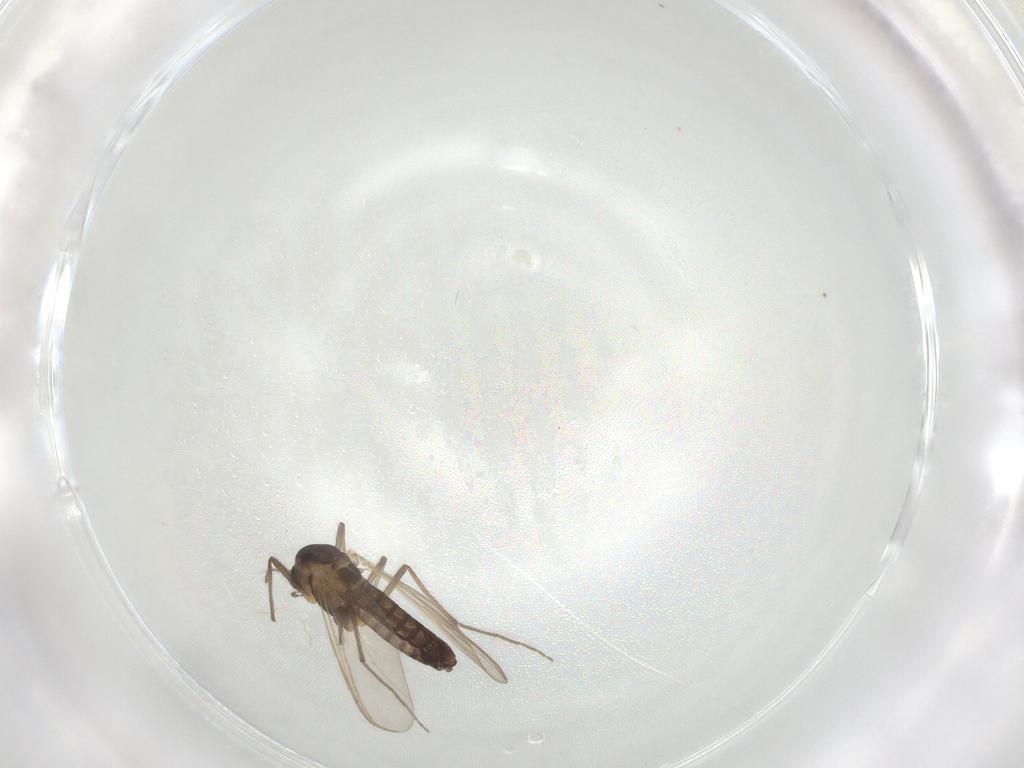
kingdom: Animalia
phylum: Arthropoda
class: Insecta
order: Diptera
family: Chironomidae
